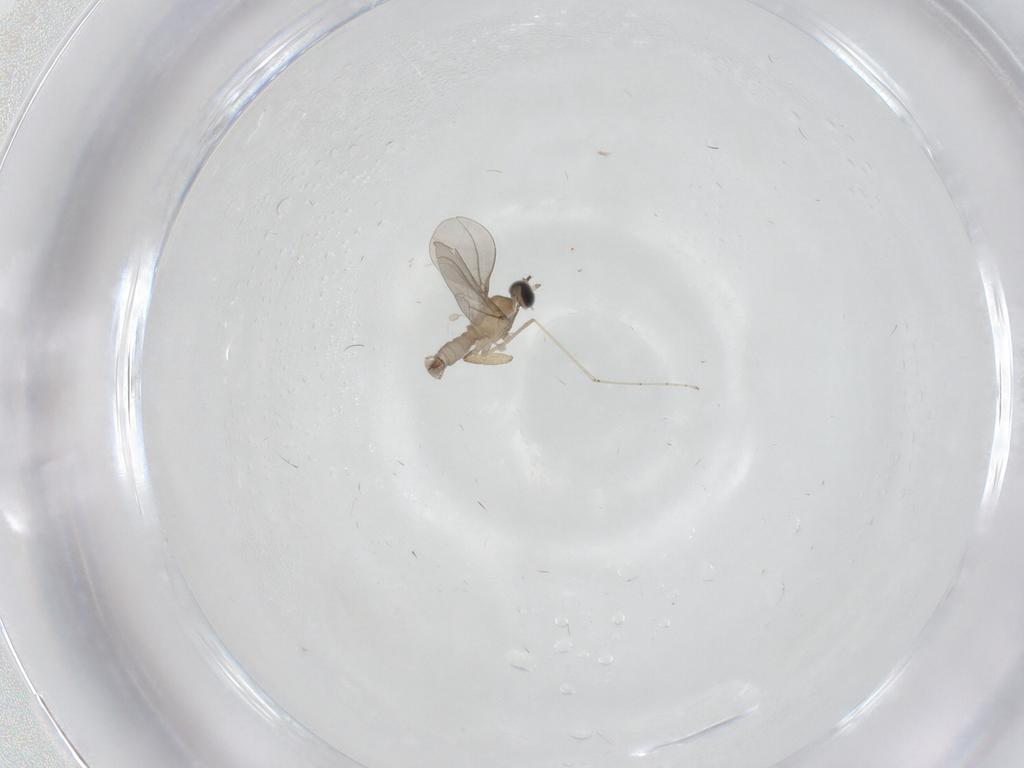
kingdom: Animalia
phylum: Arthropoda
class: Insecta
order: Diptera
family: Cecidomyiidae
